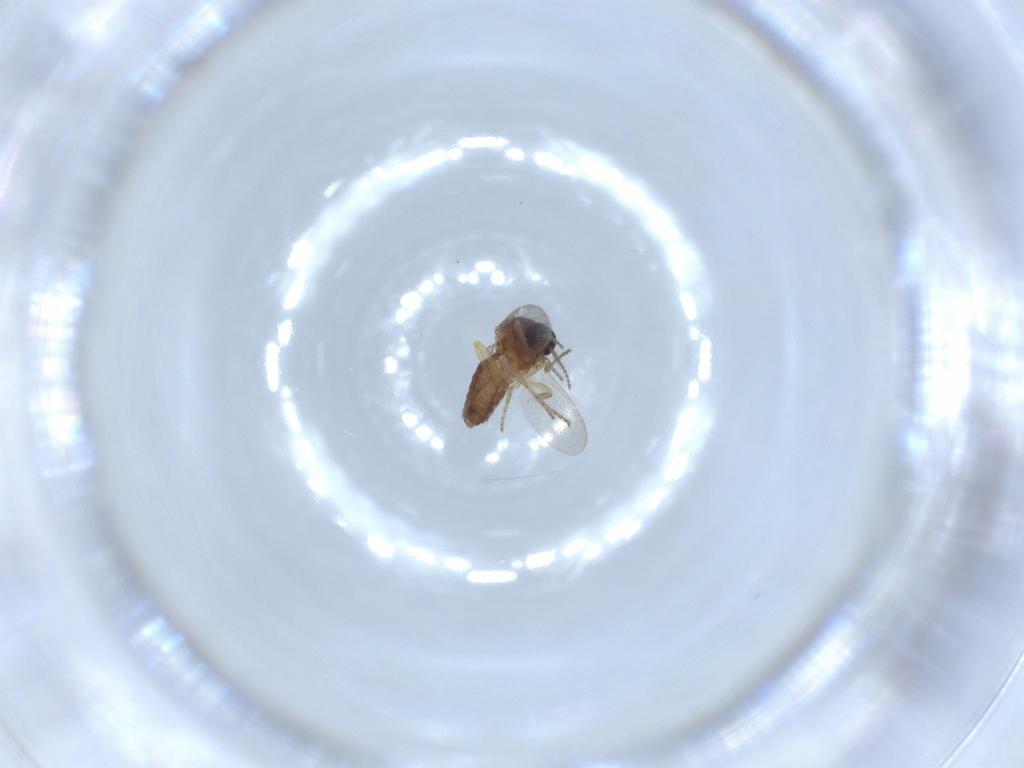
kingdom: Animalia
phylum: Arthropoda
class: Insecta
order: Diptera
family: Ceratopogonidae
